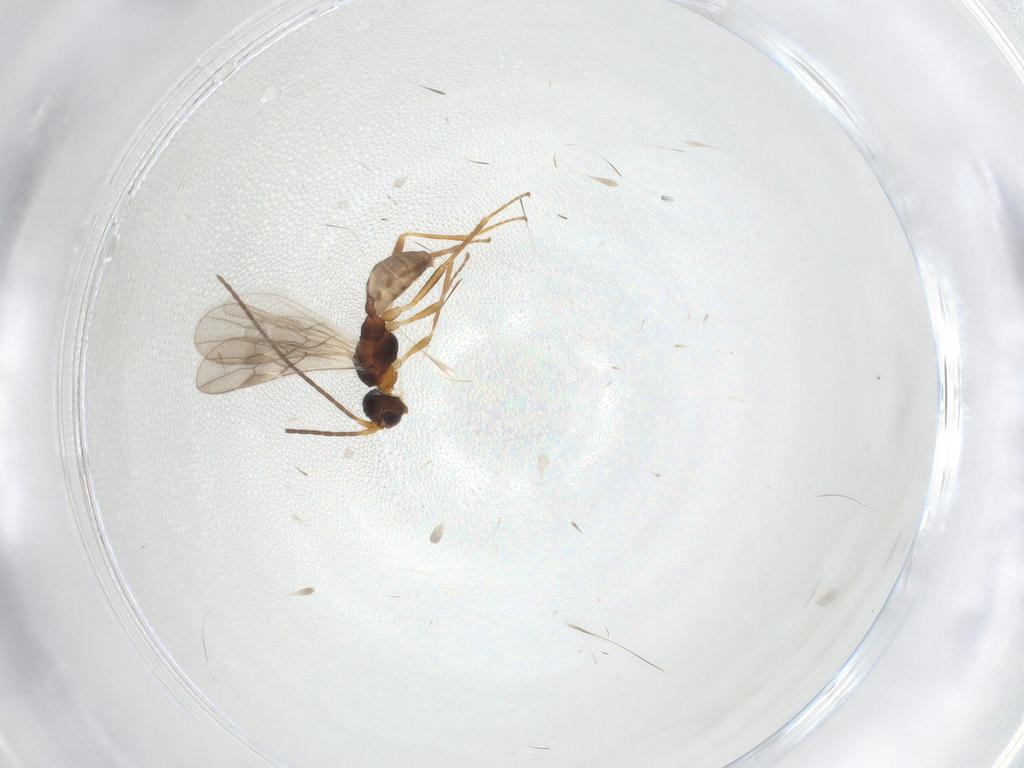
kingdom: Animalia
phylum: Arthropoda
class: Insecta
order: Hymenoptera
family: Braconidae
